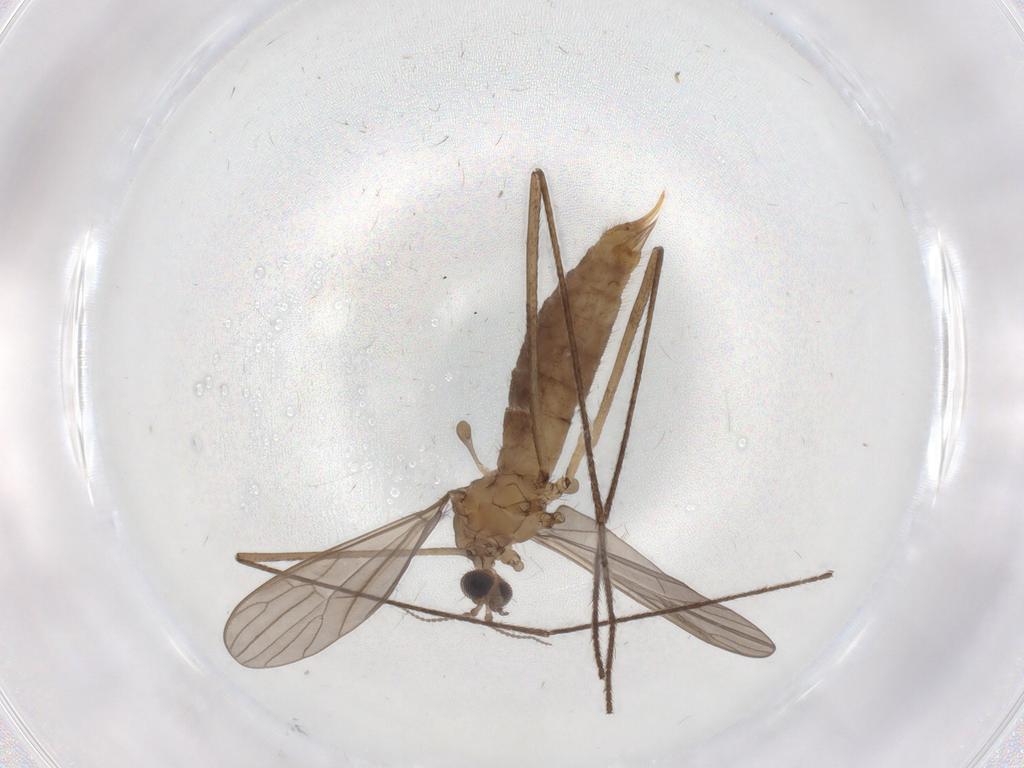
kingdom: Animalia
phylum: Arthropoda
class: Insecta
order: Diptera
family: Limoniidae
